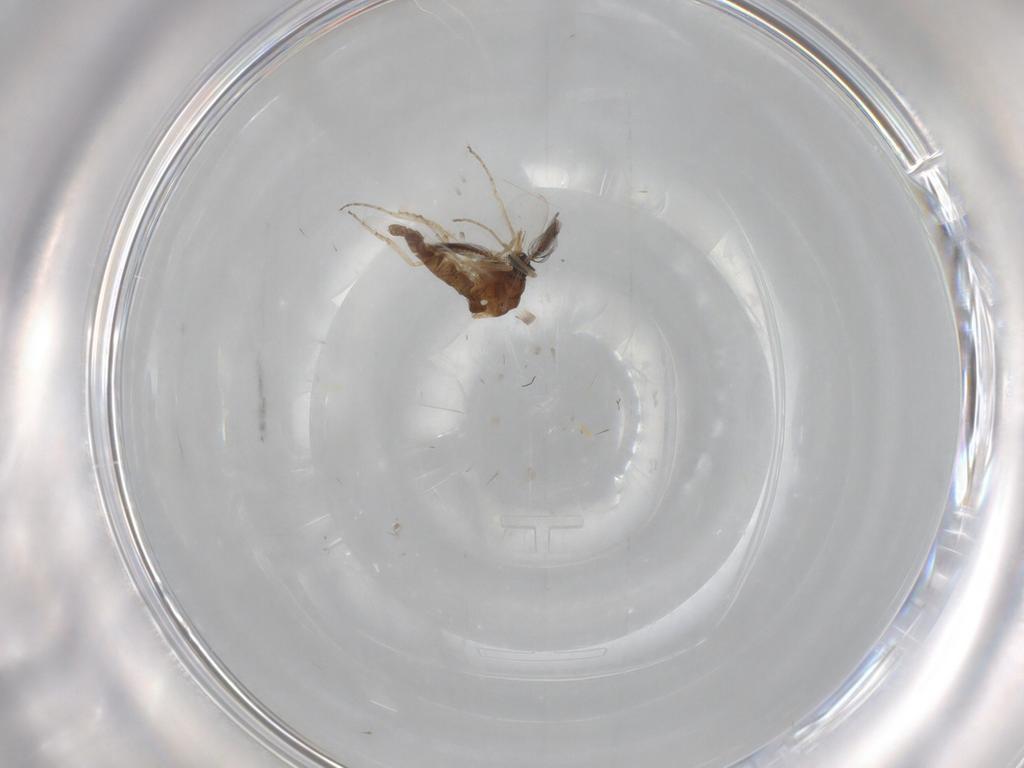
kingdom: Animalia
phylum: Arthropoda
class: Insecta
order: Diptera
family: Ceratopogonidae
